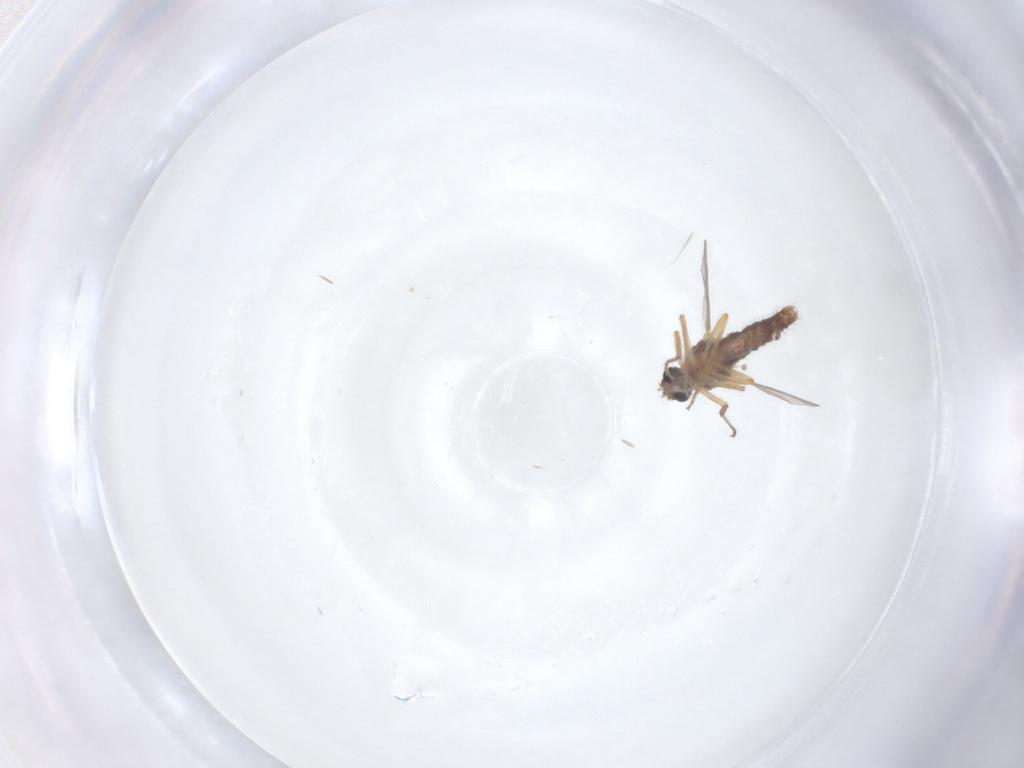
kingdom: Animalia
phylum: Arthropoda
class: Insecta
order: Diptera
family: Ceratopogonidae
